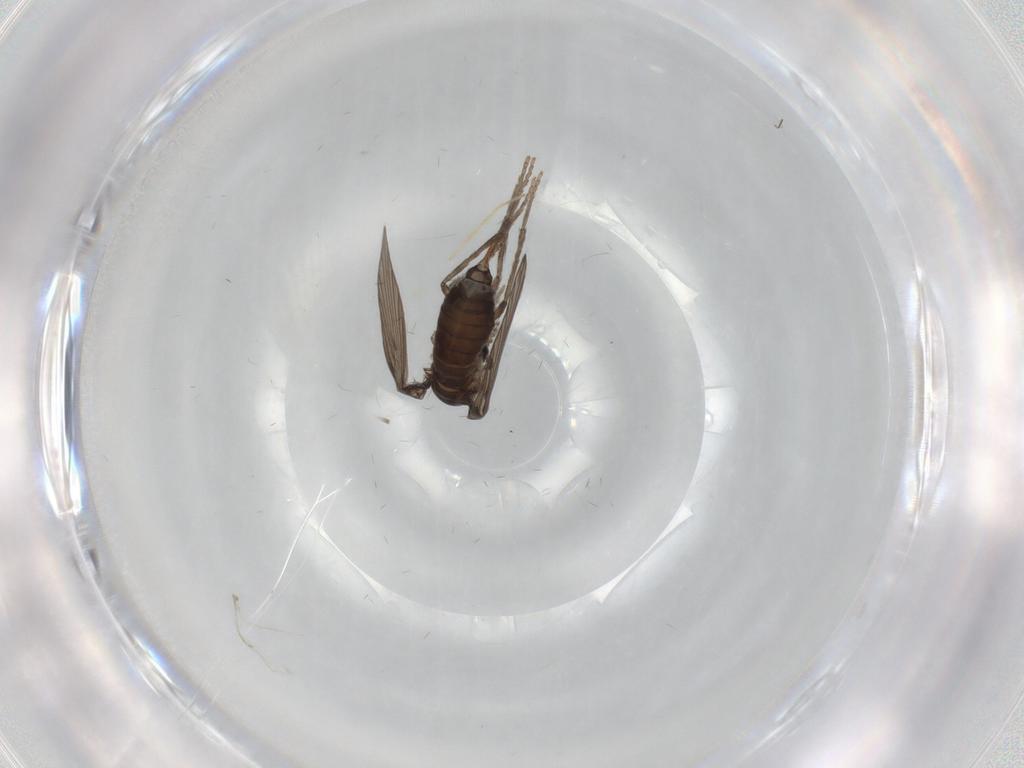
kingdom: Animalia
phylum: Arthropoda
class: Insecta
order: Diptera
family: Psychodidae
